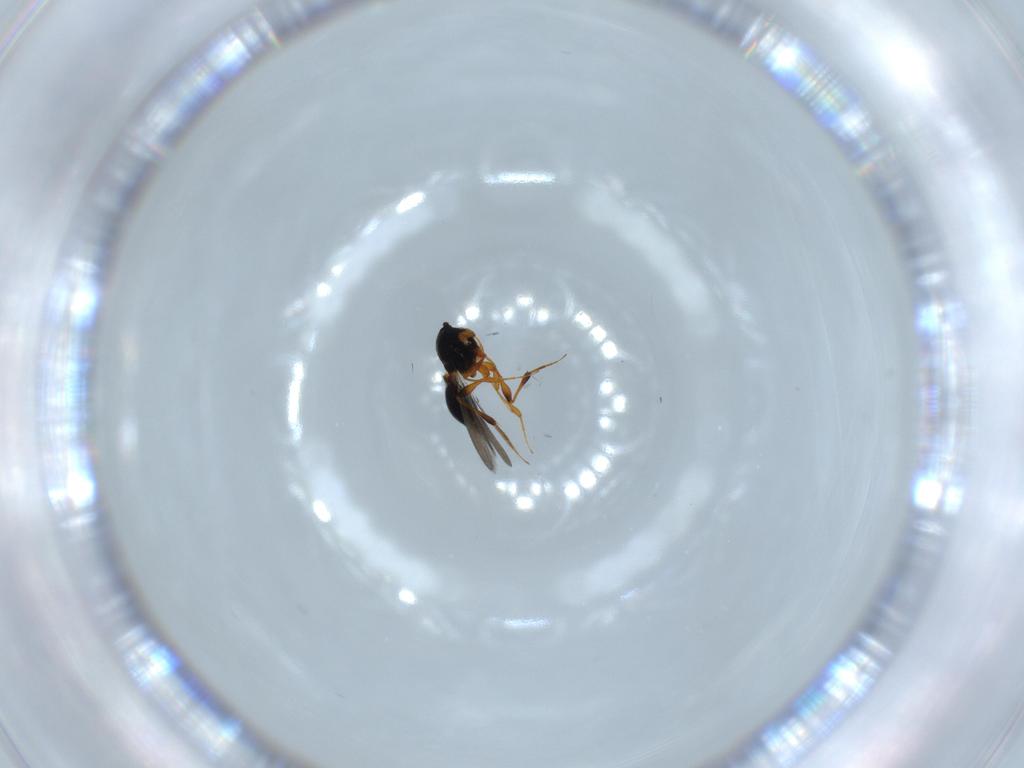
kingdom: Animalia
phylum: Arthropoda
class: Insecta
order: Hymenoptera
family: Platygastridae
